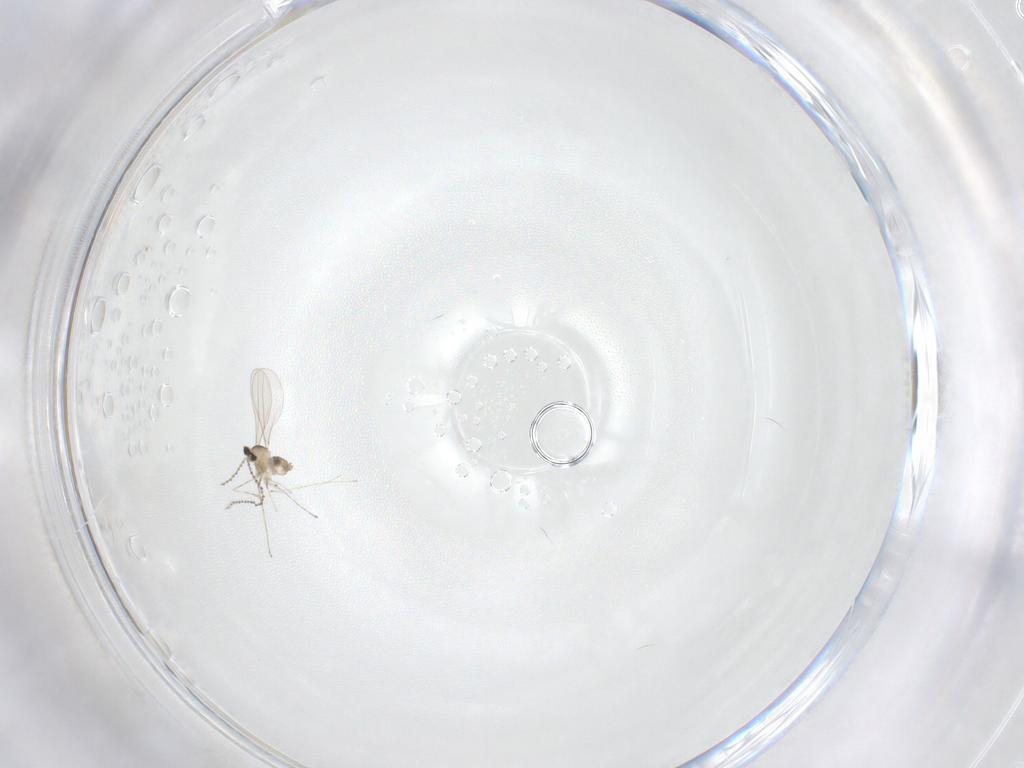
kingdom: Animalia
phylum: Arthropoda
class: Insecta
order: Diptera
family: Cecidomyiidae
